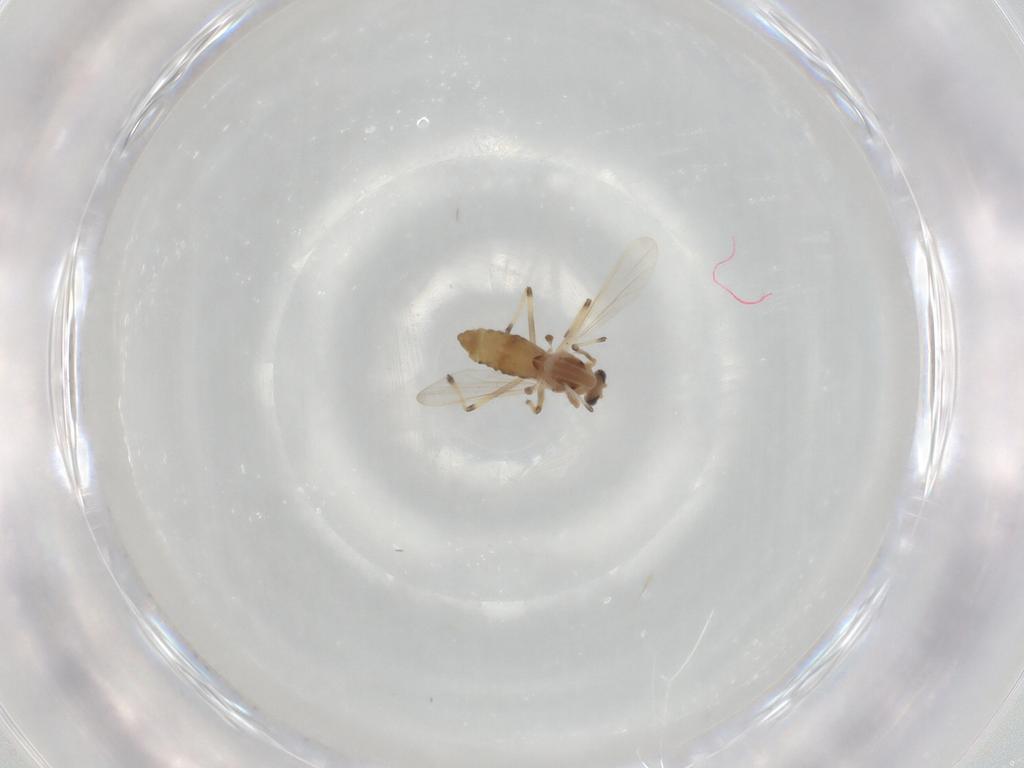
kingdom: Animalia
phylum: Arthropoda
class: Insecta
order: Diptera
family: Chironomidae
